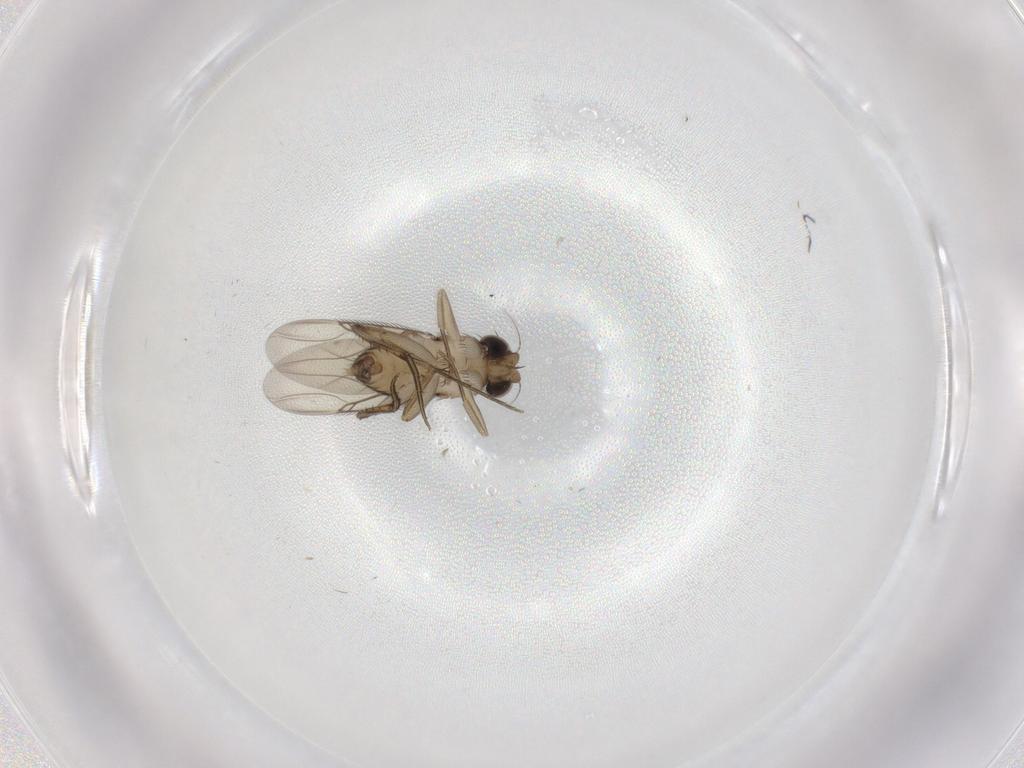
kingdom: Animalia
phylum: Arthropoda
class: Insecta
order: Diptera
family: Phoridae
